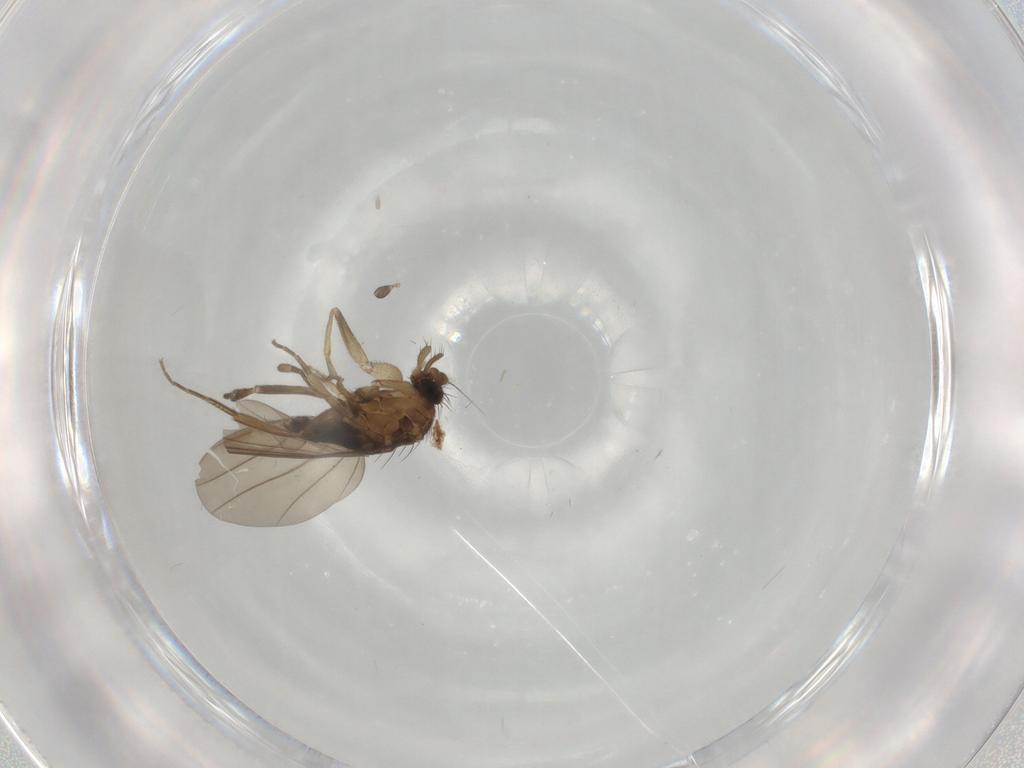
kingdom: Animalia
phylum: Arthropoda
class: Insecta
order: Diptera
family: Phoridae
